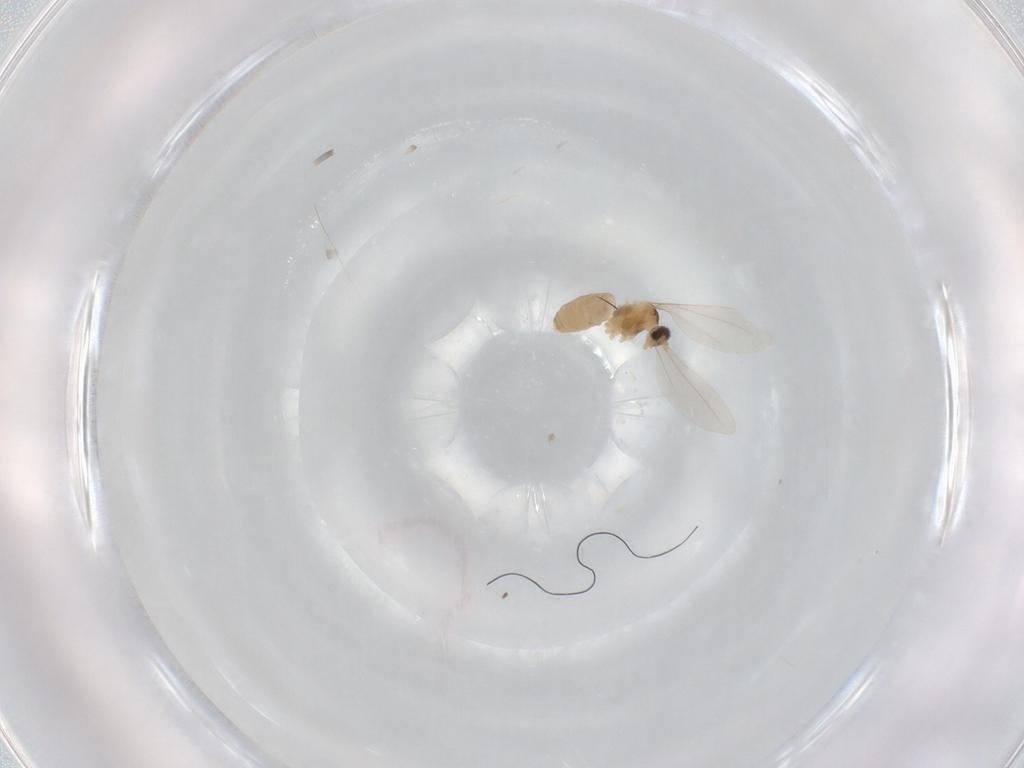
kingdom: Animalia
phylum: Arthropoda
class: Insecta
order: Diptera
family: Cecidomyiidae
